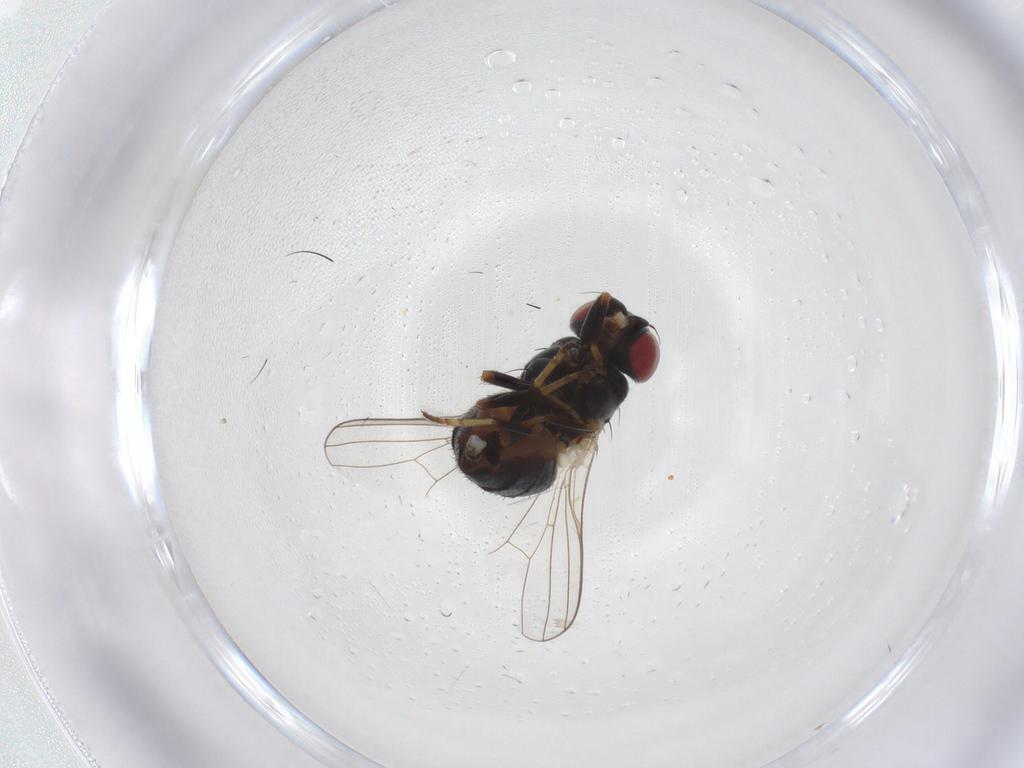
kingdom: Animalia
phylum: Arthropoda
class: Insecta
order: Diptera
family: Chamaemyiidae
